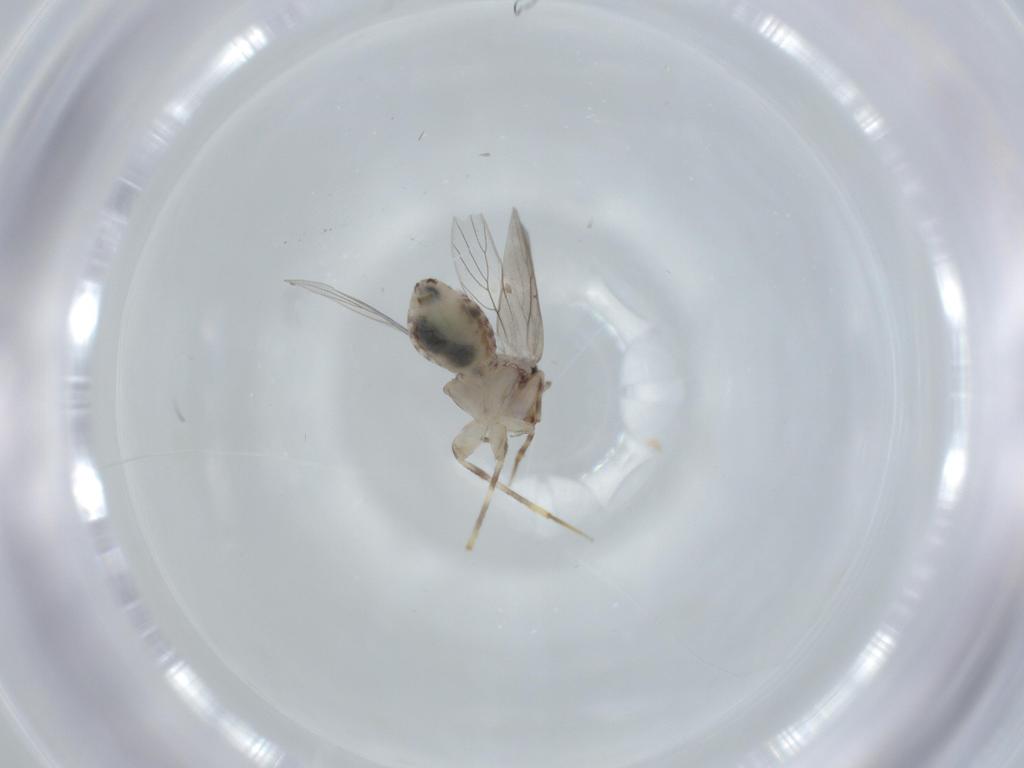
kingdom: Animalia
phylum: Arthropoda
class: Insecta
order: Psocodea
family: Lepidopsocidae
